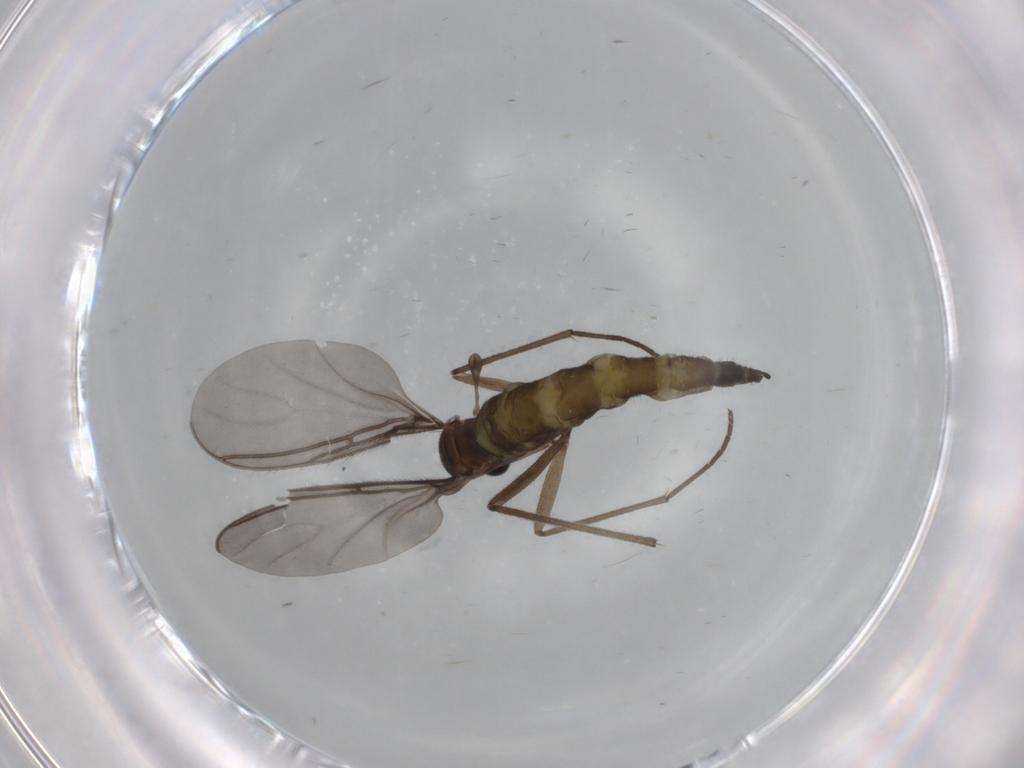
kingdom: Animalia
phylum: Arthropoda
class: Insecta
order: Diptera
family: Sciaridae
